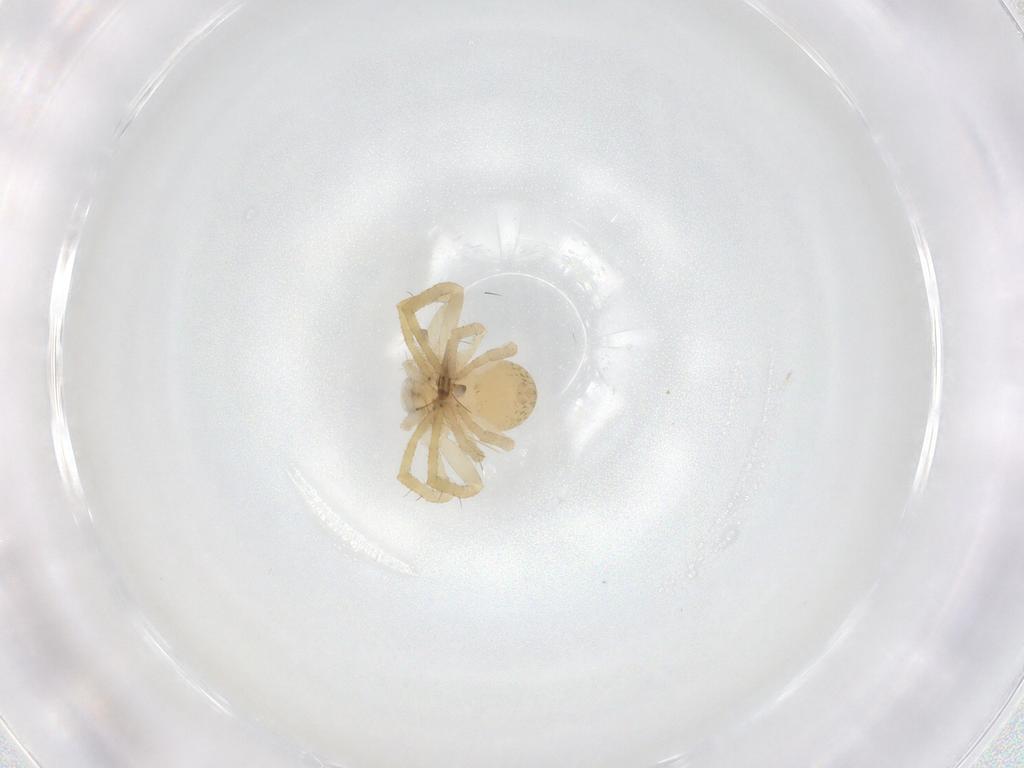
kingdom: Animalia
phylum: Arthropoda
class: Arachnida
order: Araneae
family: Thomisidae
